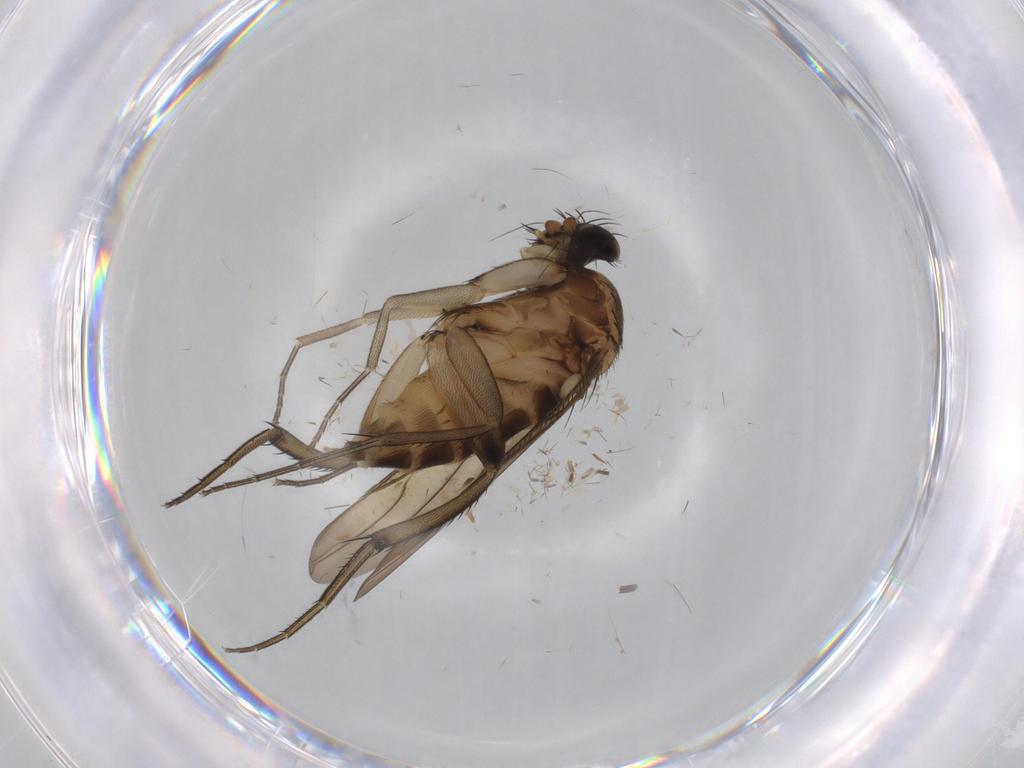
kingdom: Animalia
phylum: Arthropoda
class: Insecta
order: Diptera
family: Phoridae
